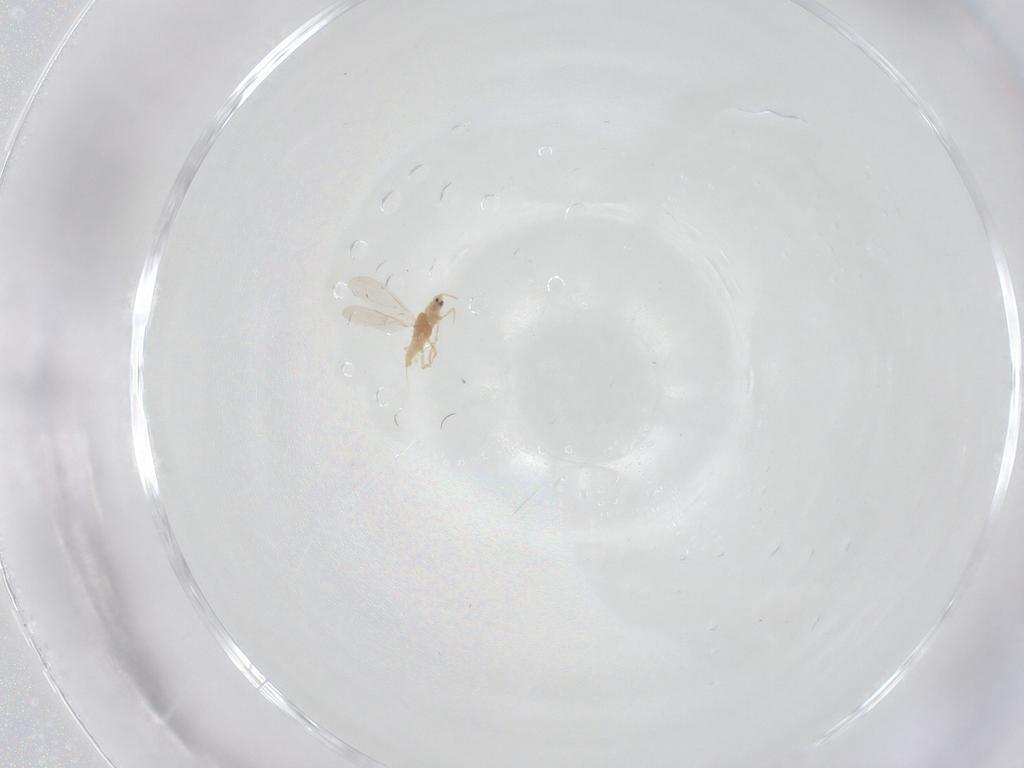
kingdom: Animalia
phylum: Arthropoda
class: Insecta
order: Hemiptera
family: Diaspididae
